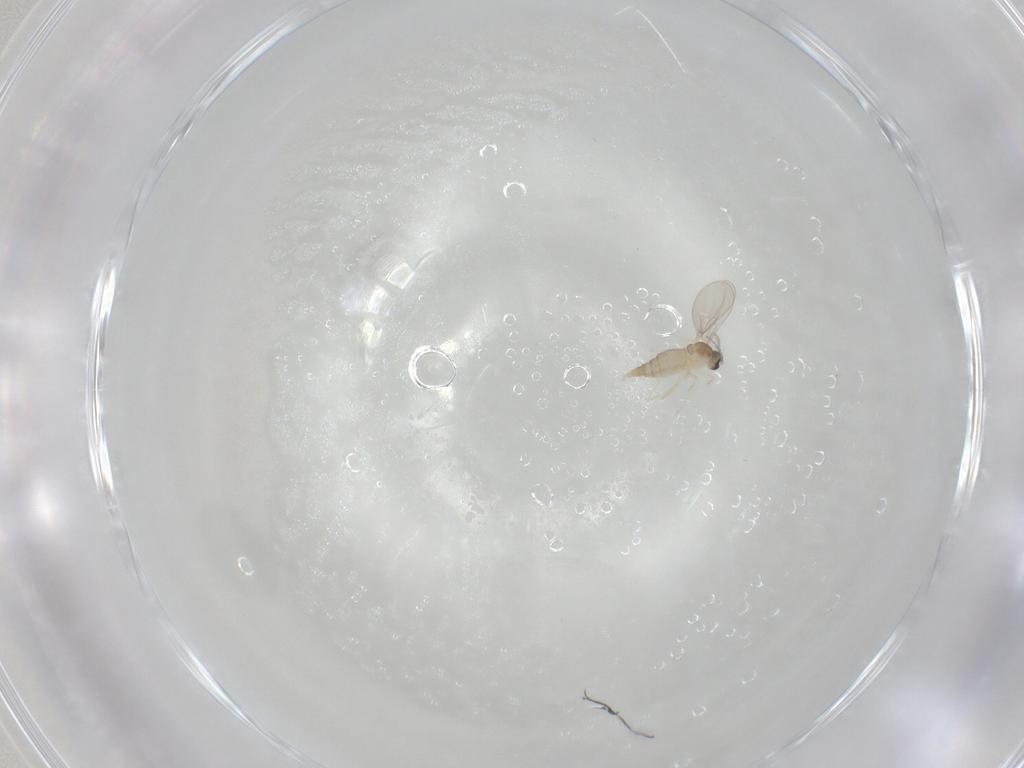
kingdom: Animalia
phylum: Arthropoda
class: Insecta
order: Diptera
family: Cecidomyiidae
